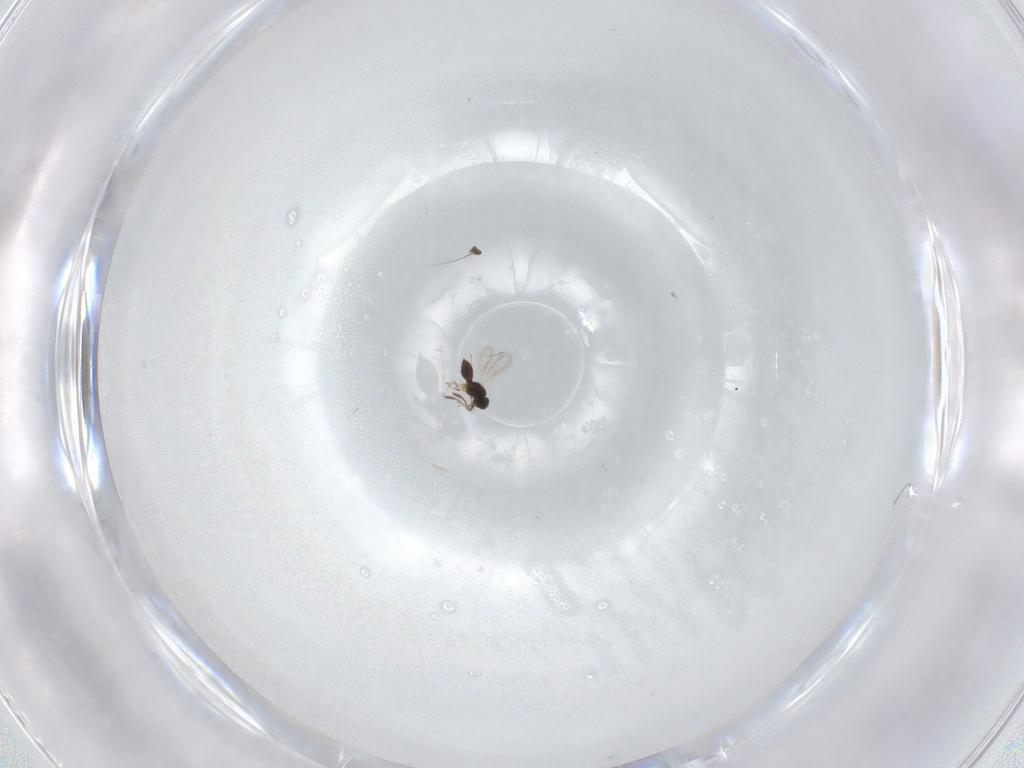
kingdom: Animalia
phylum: Arthropoda
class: Insecta
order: Hymenoptera
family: Scelionidae
